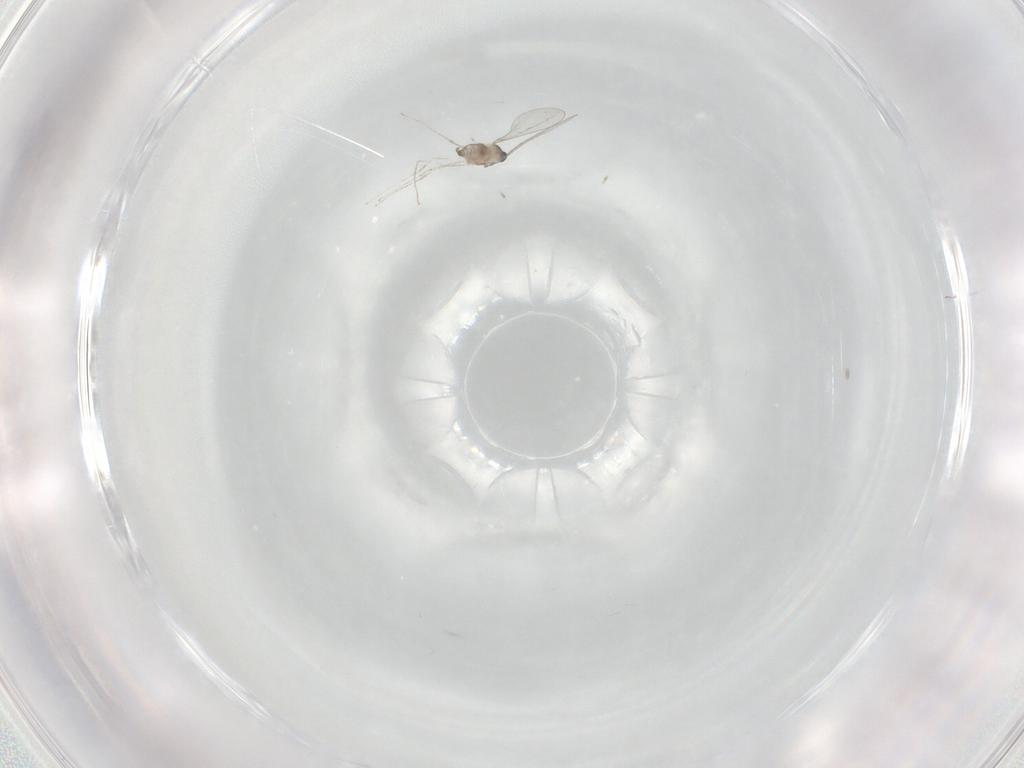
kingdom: Animalia
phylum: Arthropoda
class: Insecta
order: Diptera
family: Cecidomyiidae
